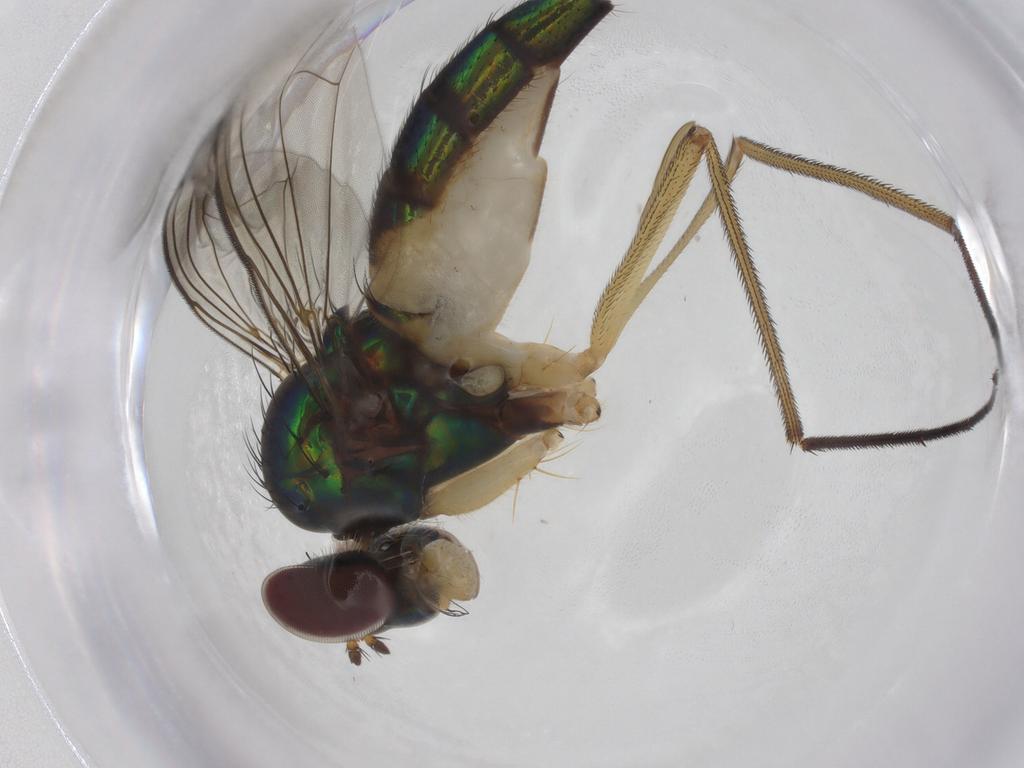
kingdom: Animalia
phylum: Arthropoda
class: Insecta
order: Diptera
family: Dolichopodidae
